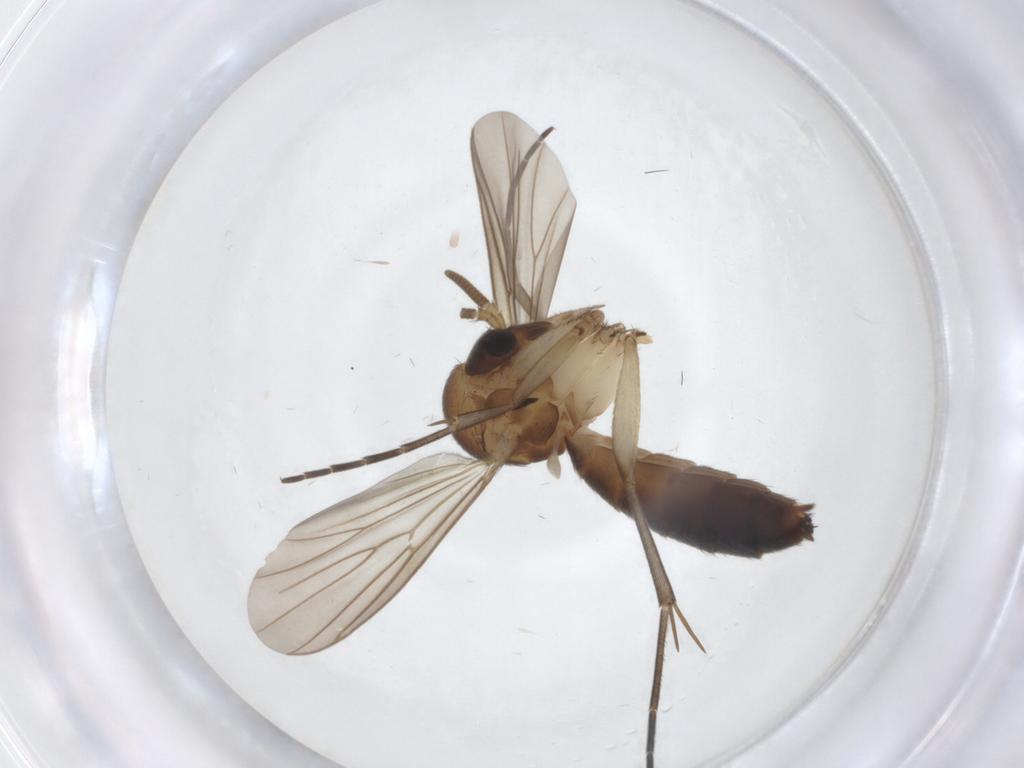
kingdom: Animalia
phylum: Arthropoda
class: Insecta
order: Diptera
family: Mycetophilidae
